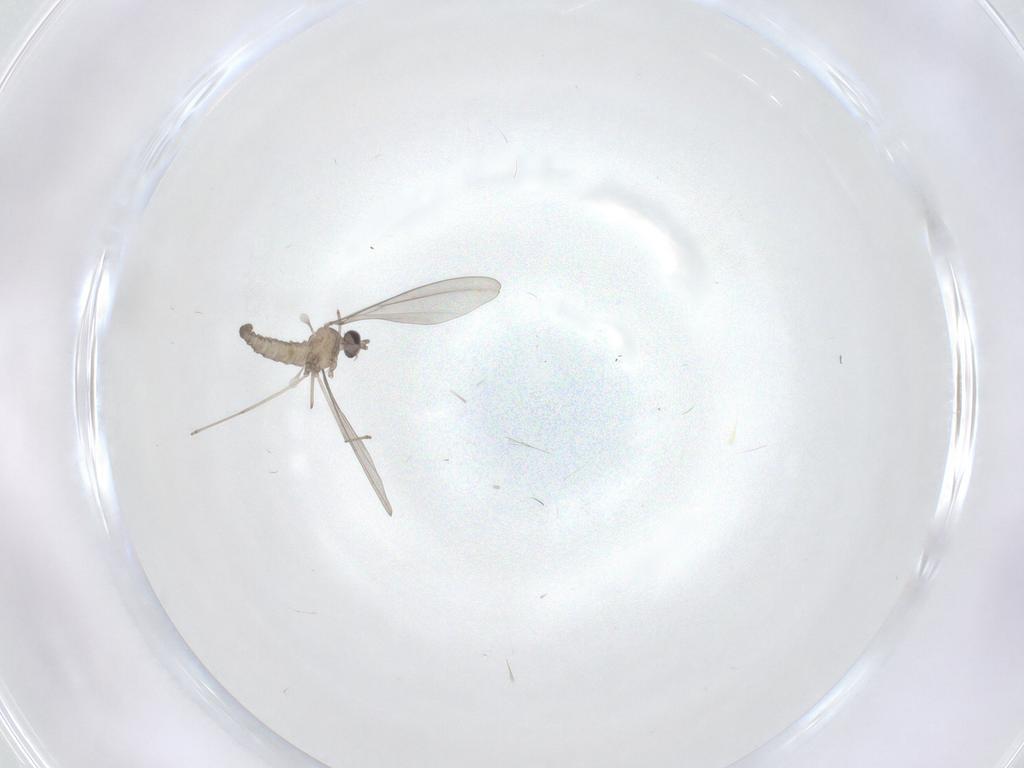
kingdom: Animalia
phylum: Arthropoda
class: Insecta
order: Diptera
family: Cecidomyiidae
